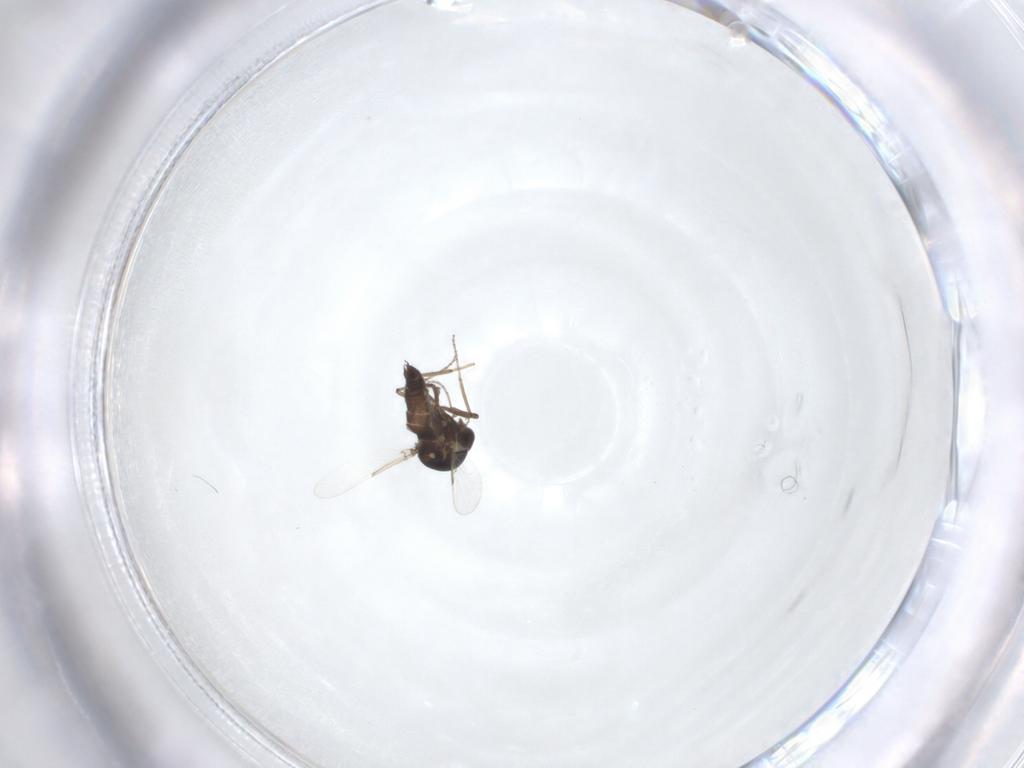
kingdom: Animalia
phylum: Arthropoda
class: Insecta
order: Diptera
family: Ceratopogonidae
